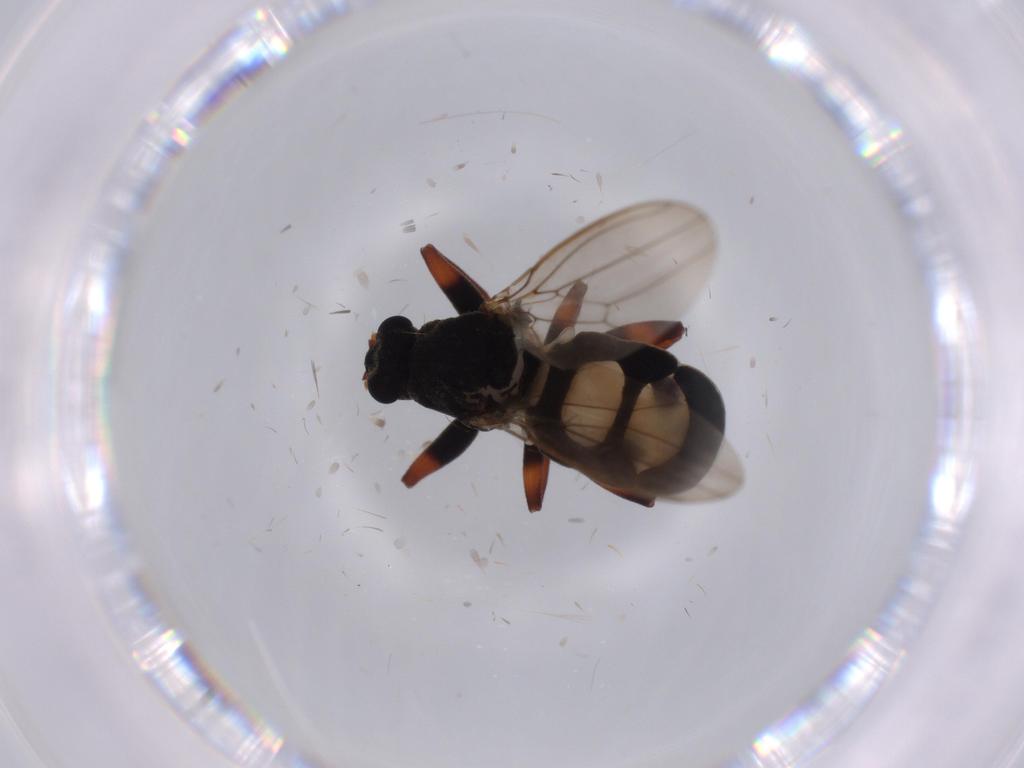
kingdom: Animalia
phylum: Arthropoda
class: Insecta
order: Diptera
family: Sphaeroceridae
